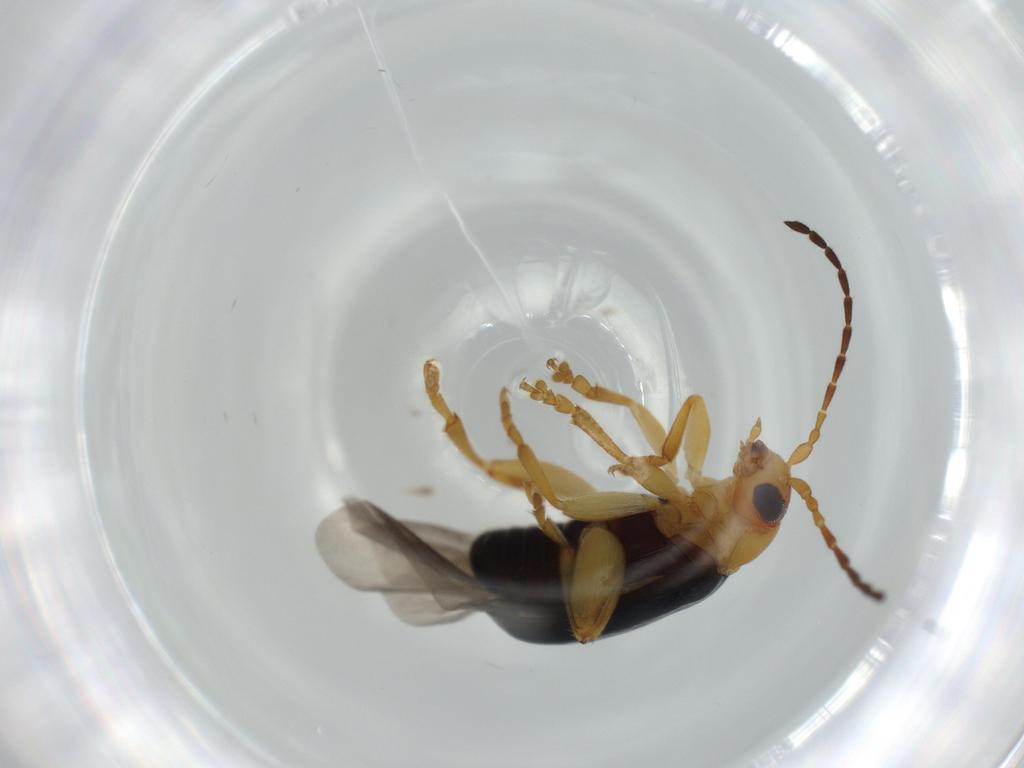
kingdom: Animalia
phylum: Arthropoda
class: Insecta
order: Coleoptera
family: Chrysomelidae
